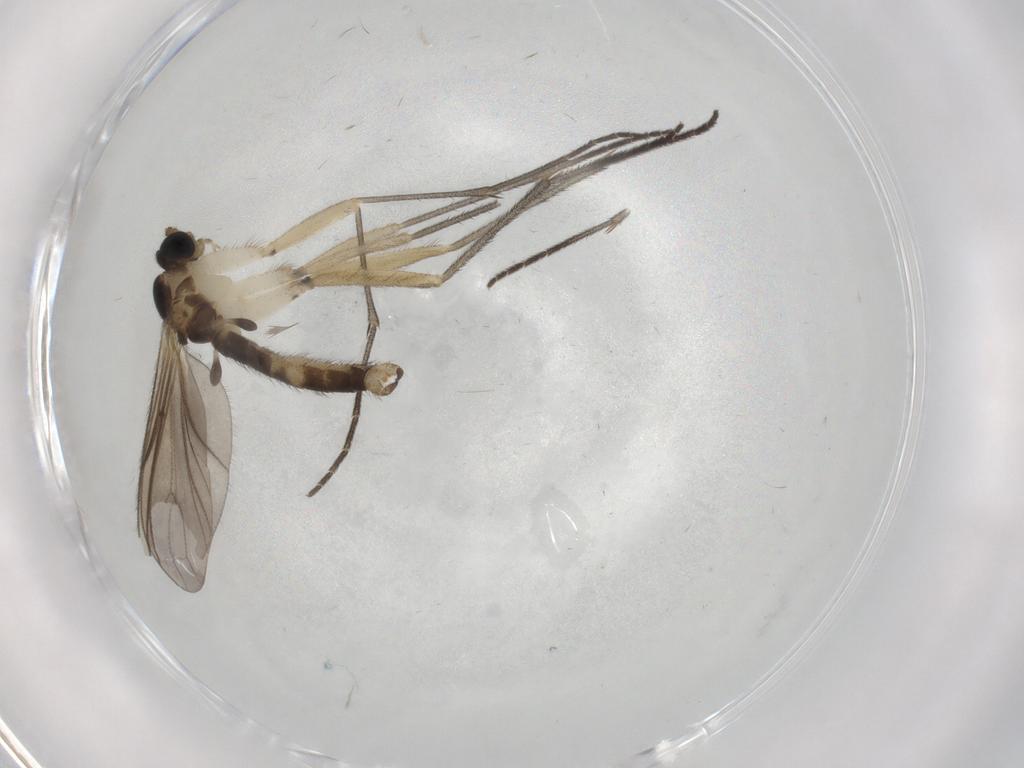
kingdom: Animalia
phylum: Arthropoda
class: Insecta
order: Diptera
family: Sciaridae
